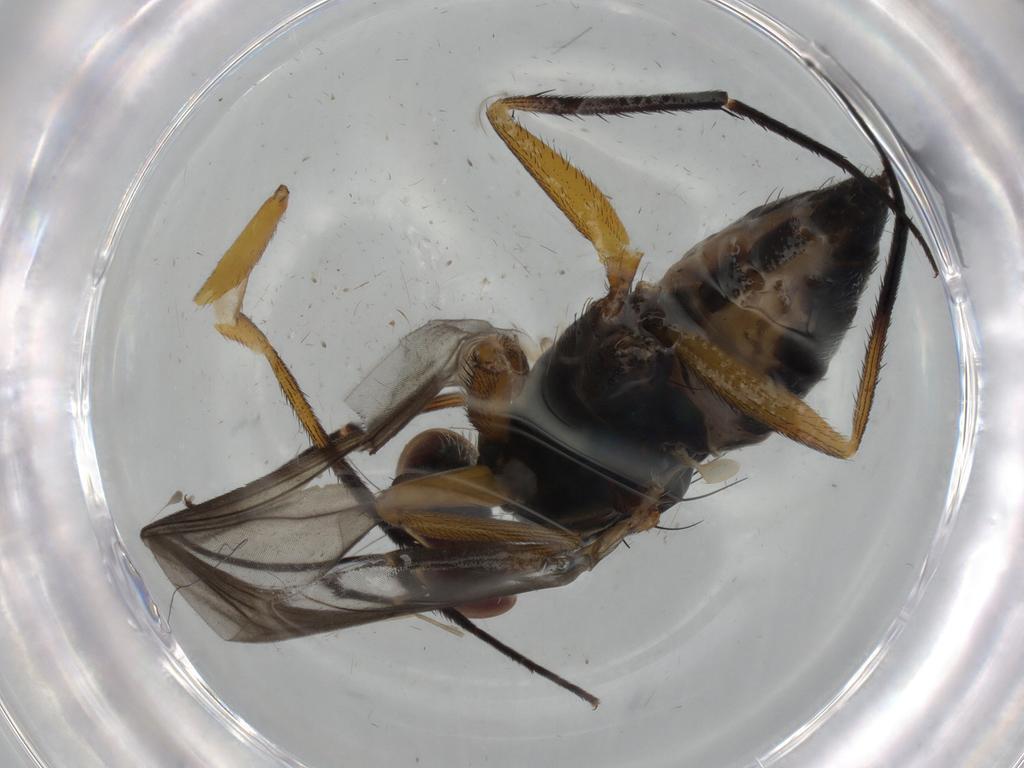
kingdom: Animalia
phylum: Arthropoda
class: Insecta
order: Diptera
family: Dolichopodidae
